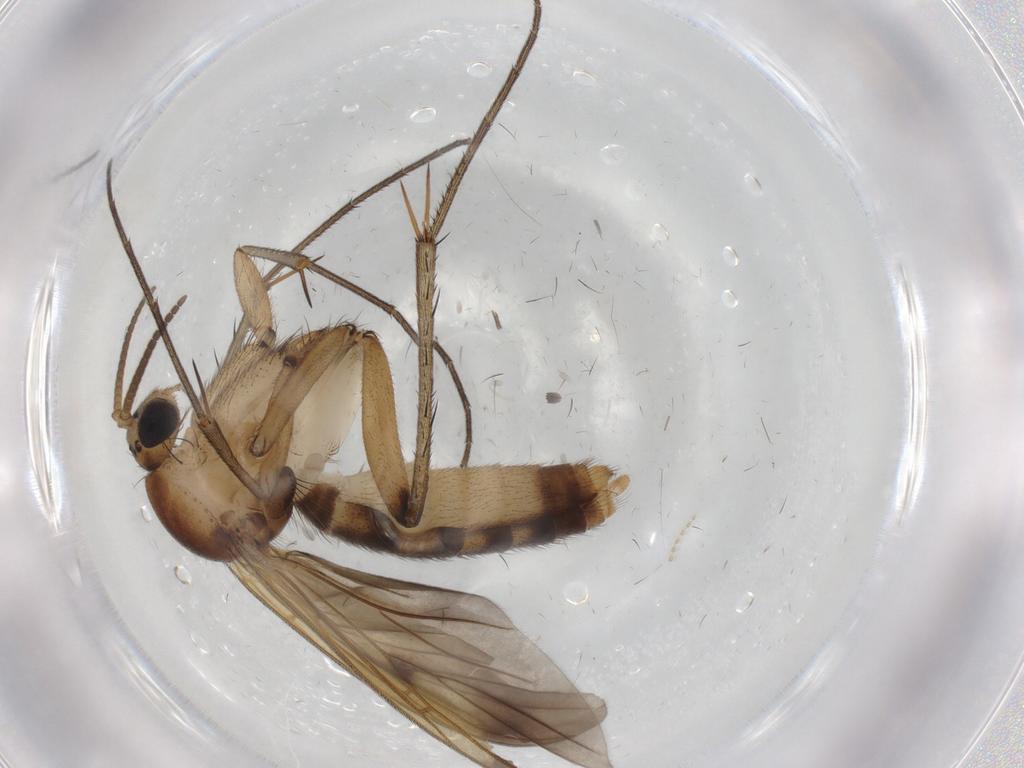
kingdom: Animalia
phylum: Arthropoda
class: Insecta
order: Diptera
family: Mycetophilidae
